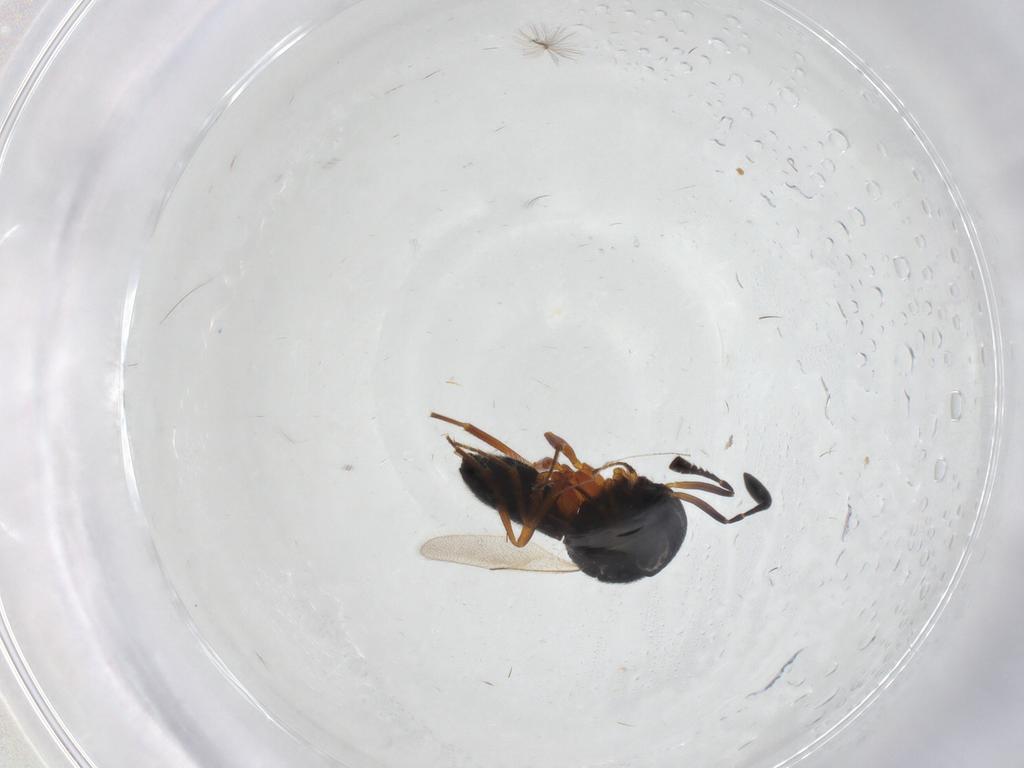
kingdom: Animalia
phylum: Arthropoda
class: Insecta
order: Hymenoptera
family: Scelionidae
